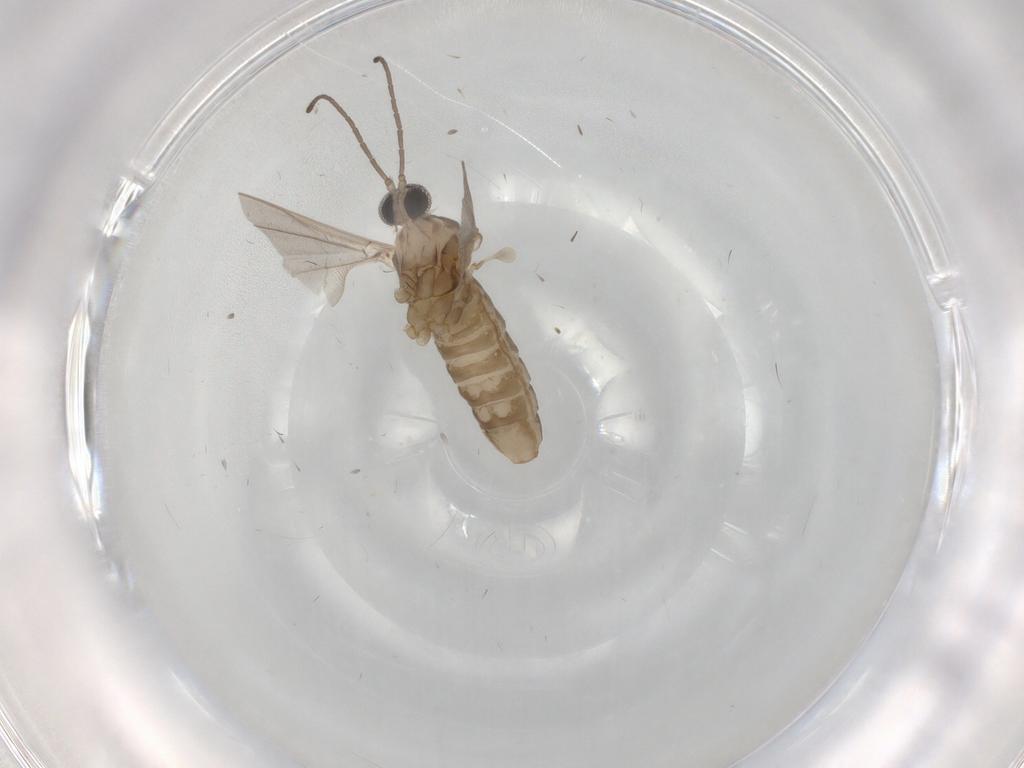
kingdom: Animalia
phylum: Arthropoda
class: Insecta
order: Diptera
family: Cecidomyiidae
